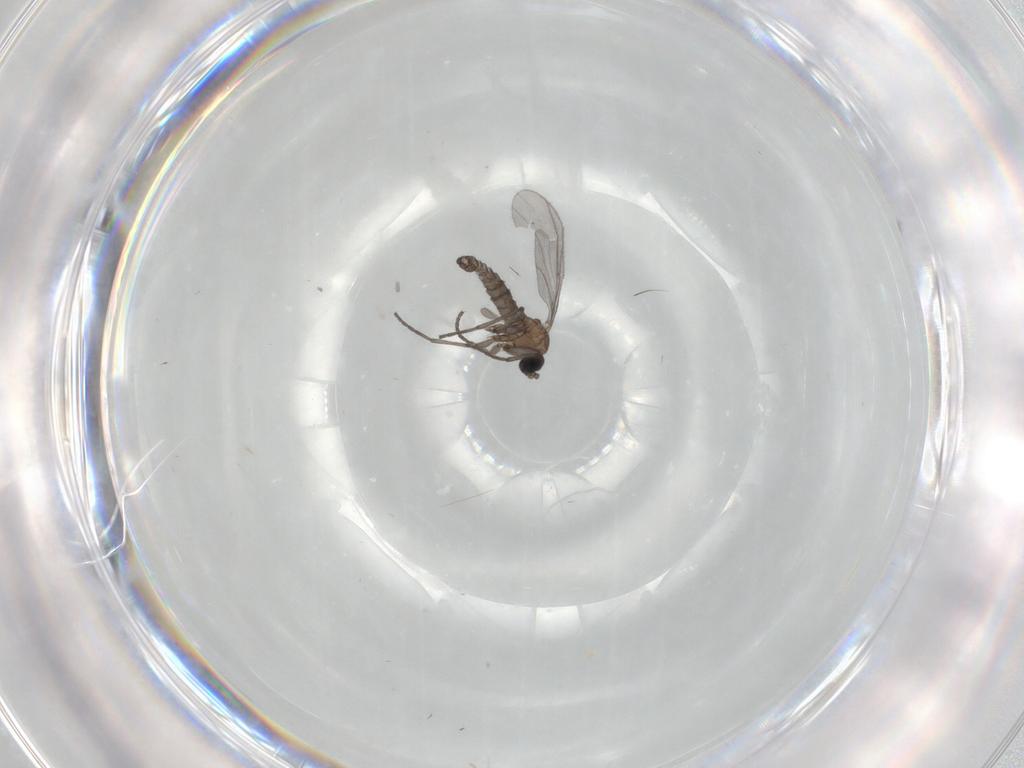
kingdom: Animalia
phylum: Arthropoda
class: Insecta
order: Diptera
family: Sciaridae
